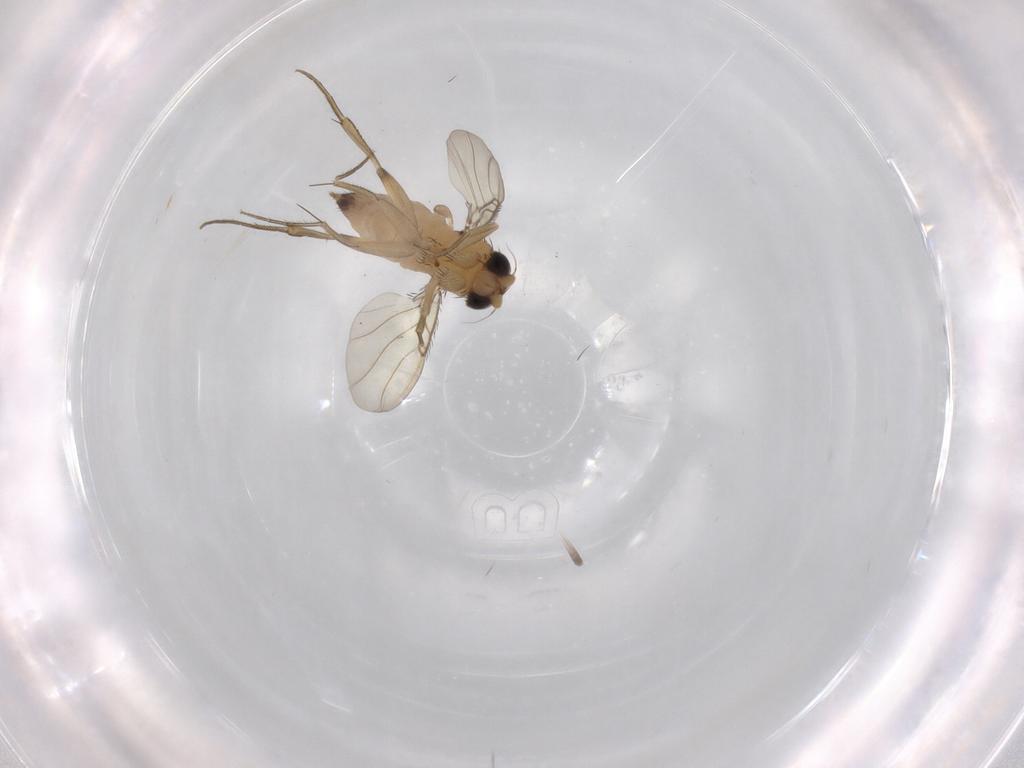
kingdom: Animalia
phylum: Arthropoda
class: Insecta
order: Diptera
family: Phoridae
